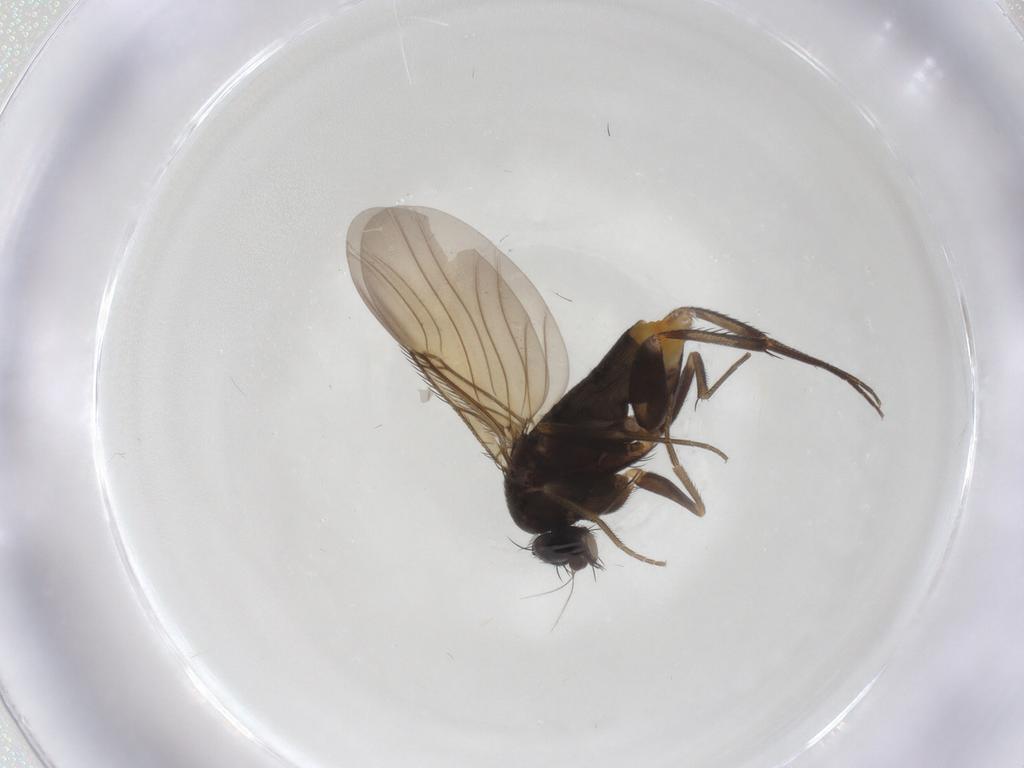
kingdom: Animalia
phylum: Arthropoda
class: Insecta
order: Diptera
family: Phoridae
